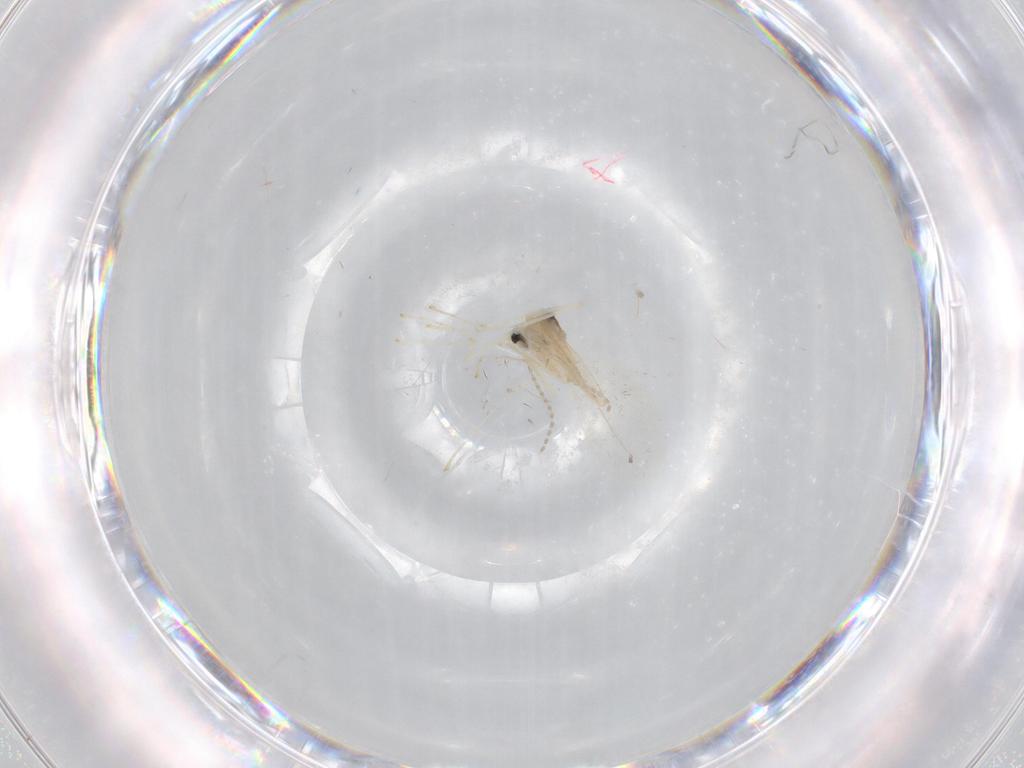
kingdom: Animalia
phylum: Arthropoda
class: Insecta
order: Diptera
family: Cecidomyiidae
